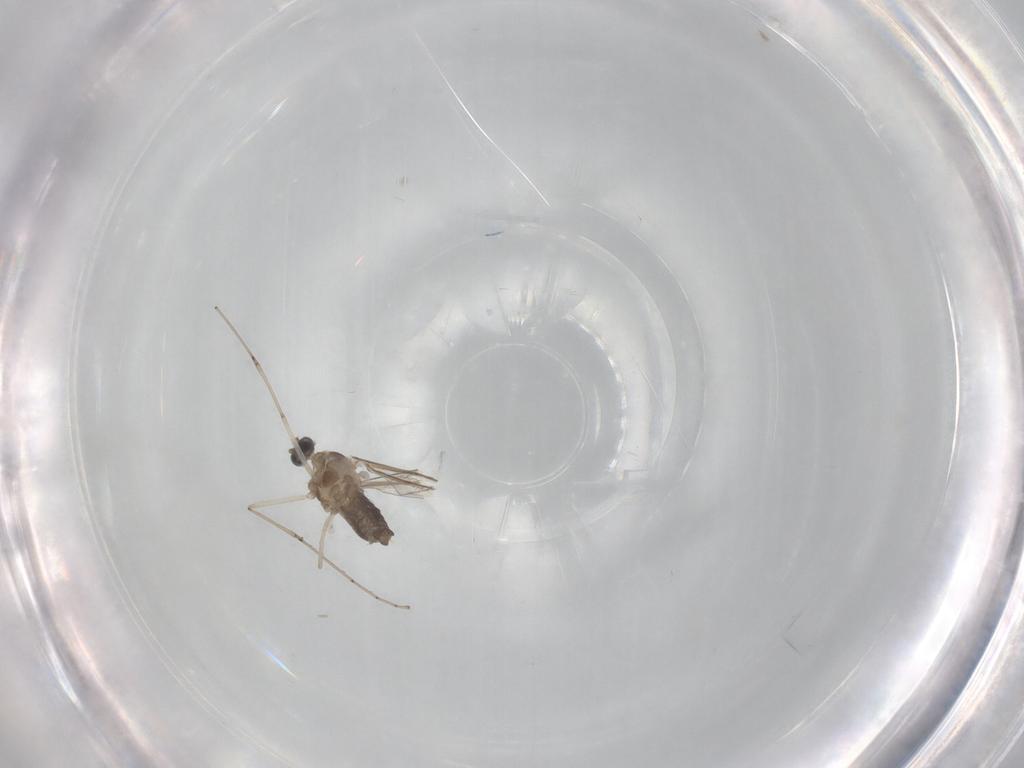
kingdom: Animalia
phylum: Arthropoda
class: Insecta
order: Diptera
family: Cecidomyiidae
